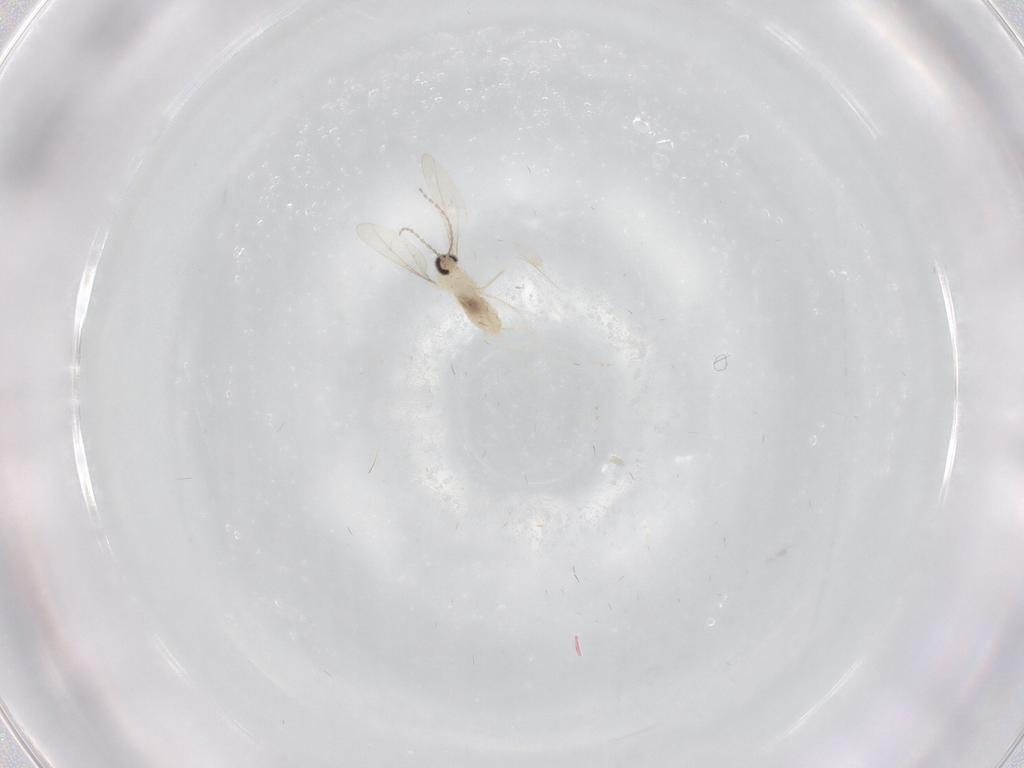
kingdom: Animalia
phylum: Arthropoda
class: Insecta
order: Diptera
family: Cecidomyiidae
